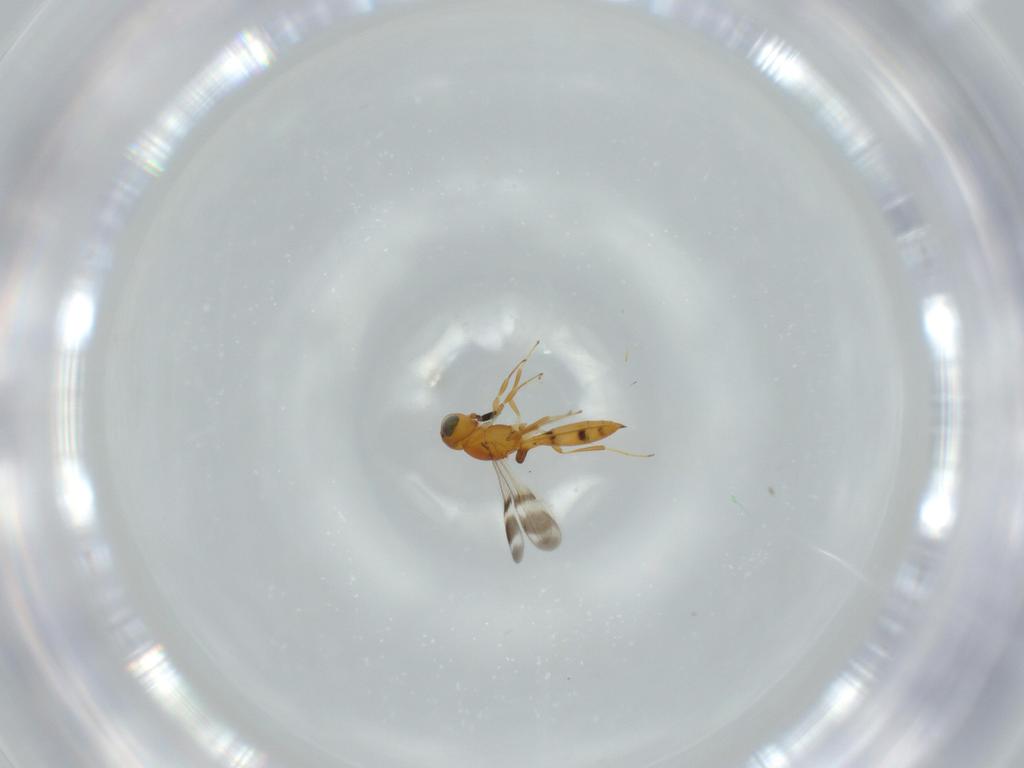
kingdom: Animalia
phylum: Arthropoda
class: Insecta
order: Hymenoptera
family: Scelionidae
